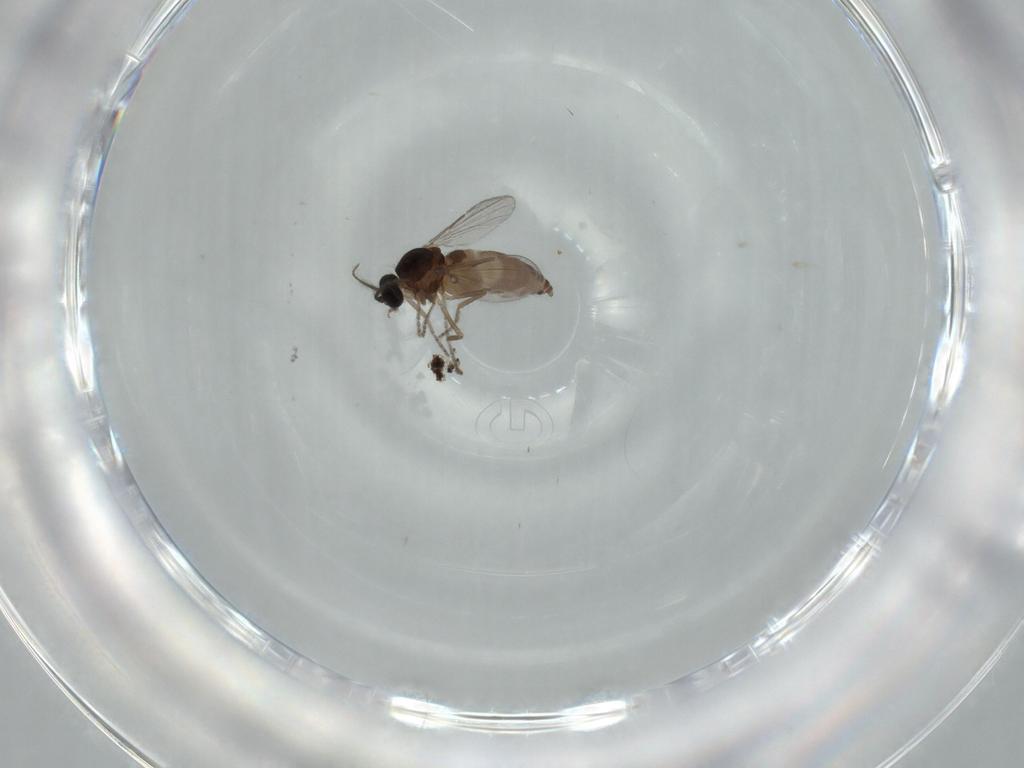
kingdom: Animalia
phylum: Arthropoda
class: Insecta
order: Diptera
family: Ceratopogonidae
